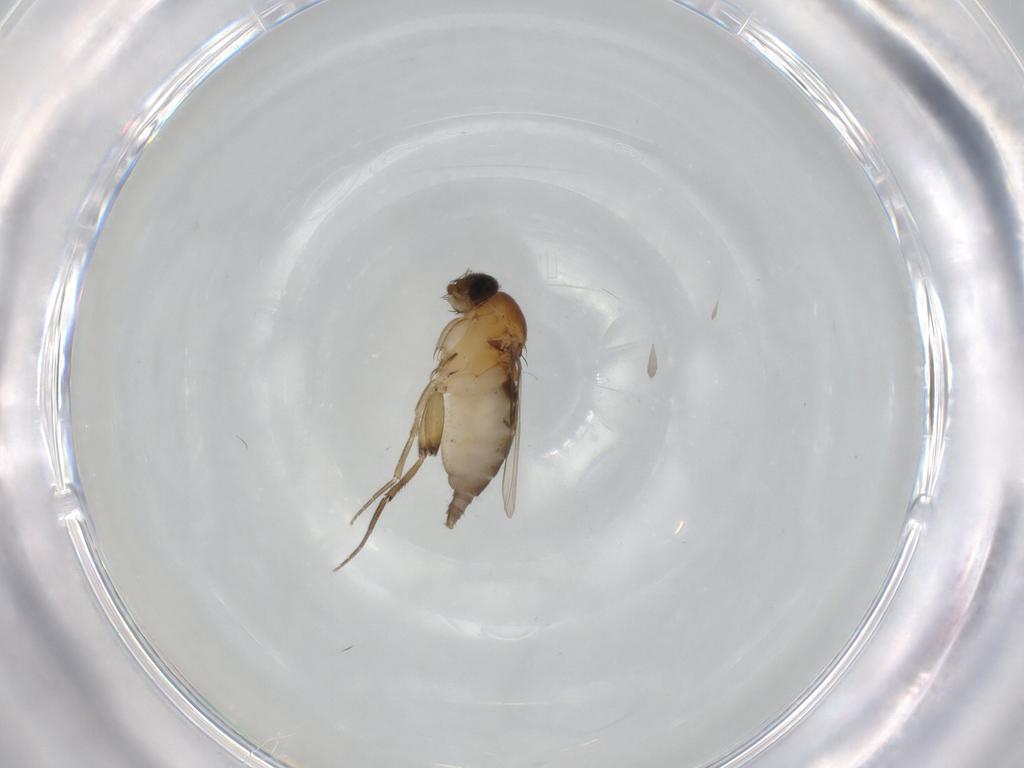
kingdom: Animalia
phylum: Arthropoda
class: Insecta
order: Diptera
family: Phoridae
